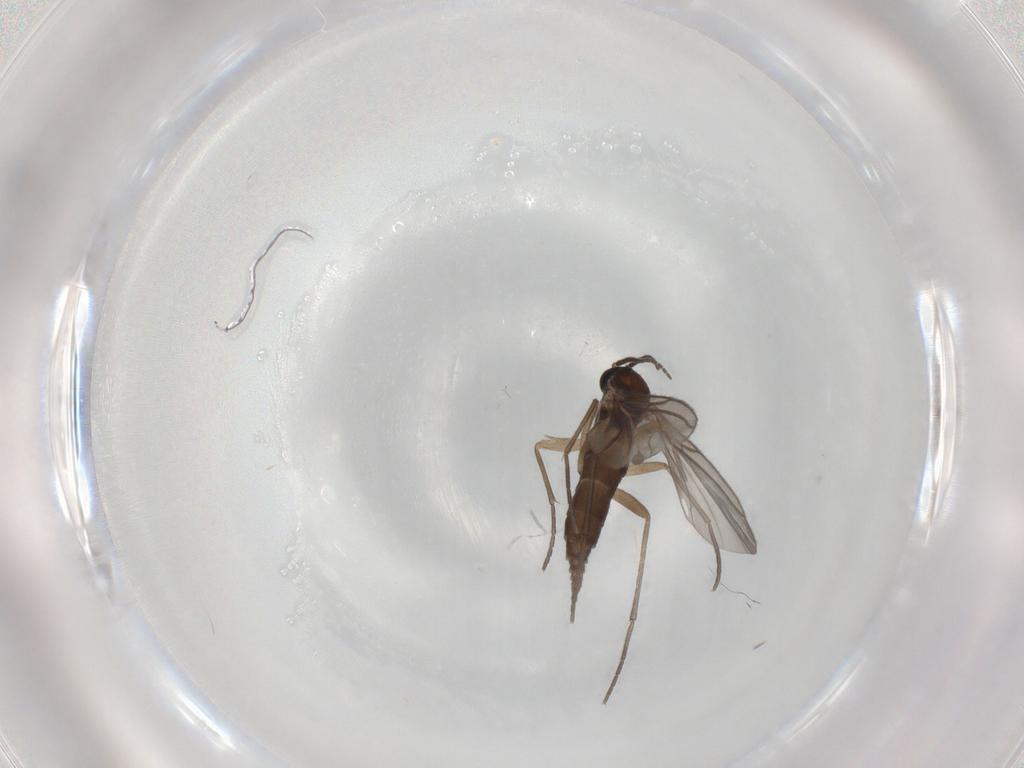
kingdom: Animalia
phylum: Arthropoda
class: Insecta
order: Diptera
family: Sciaridae
